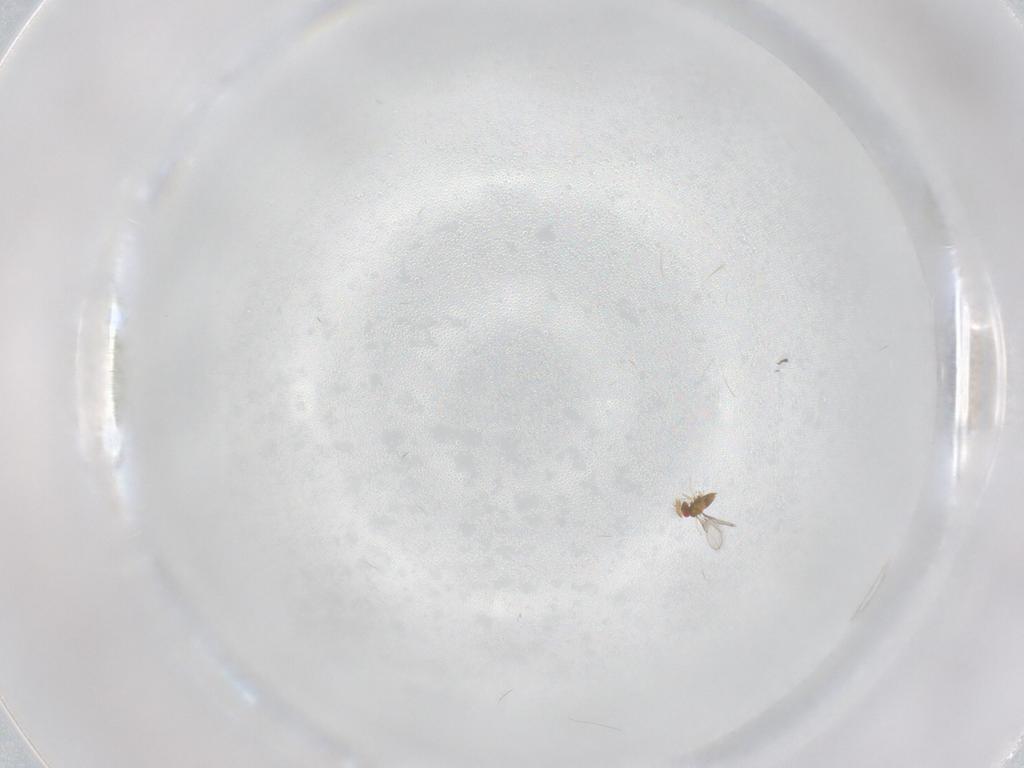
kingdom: Animalia
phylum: Arthropoda
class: Insecta
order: Hymenoptera
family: Trichogrammatidae
